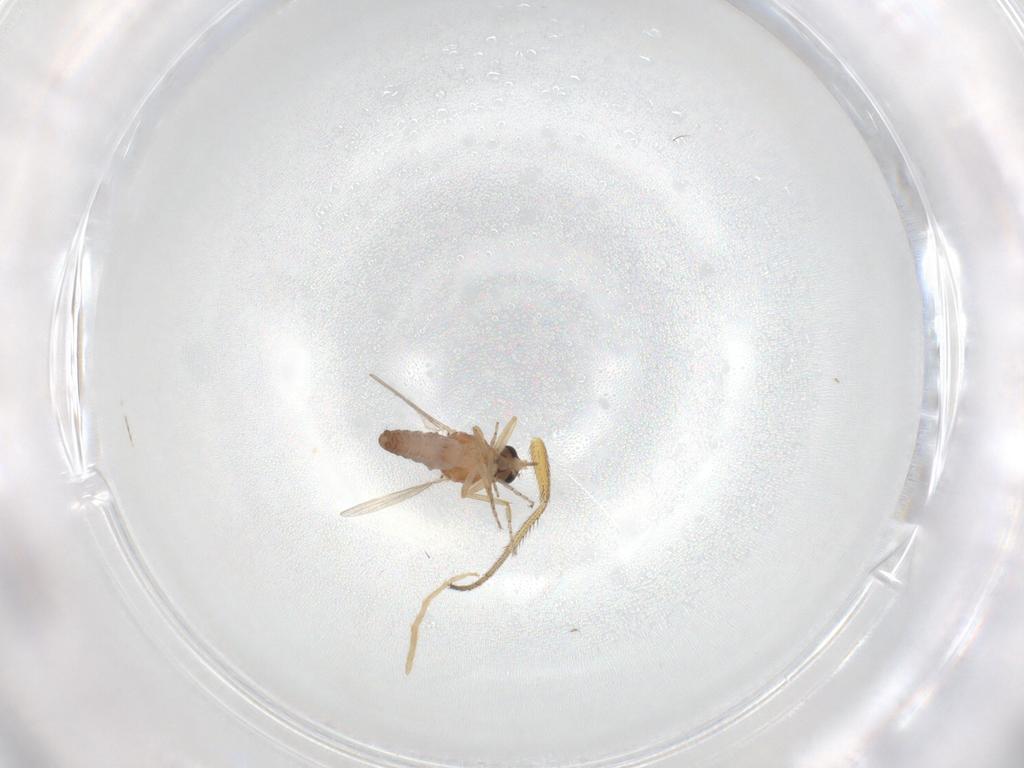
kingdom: Animalia
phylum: Arthropoda
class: Insecta
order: Diptera
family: Ceratopogonidae
